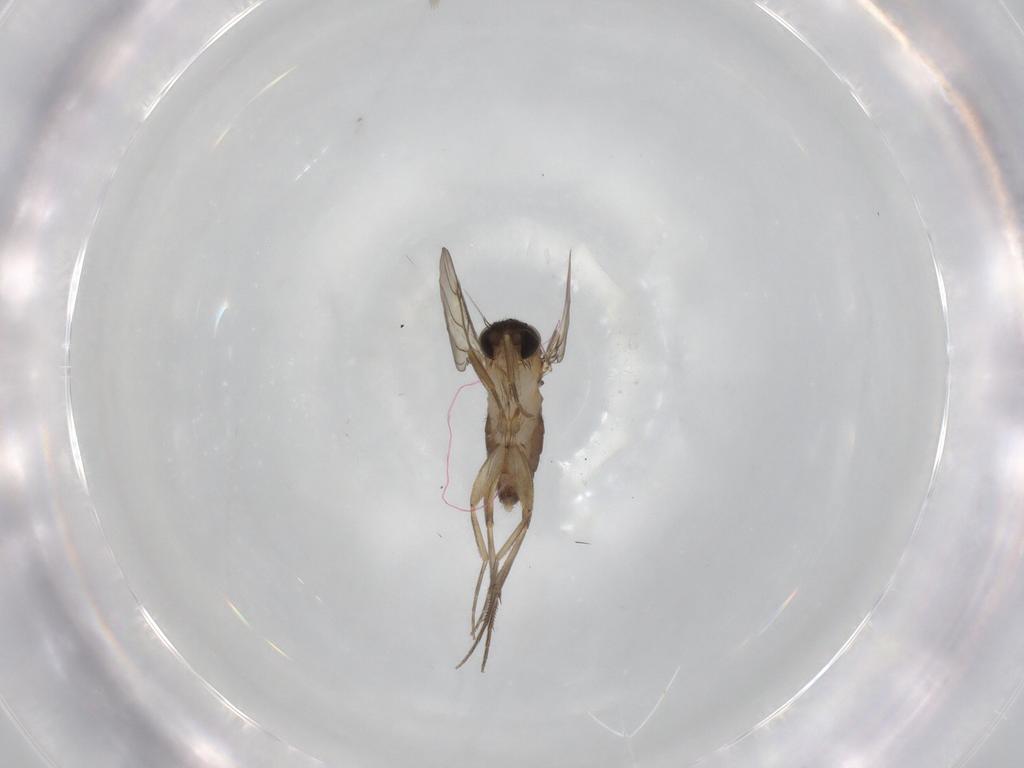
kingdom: Animalia
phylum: Arthropoda
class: Insecta
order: Diptera
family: Phoridae
